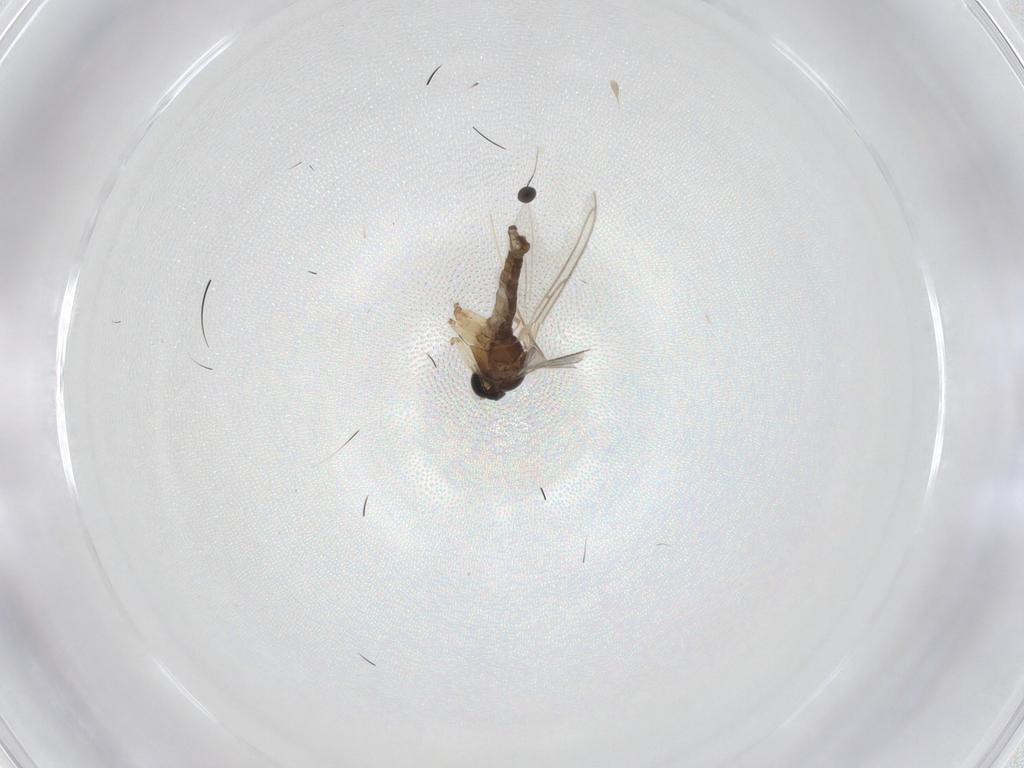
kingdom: Animalia
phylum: Arthropoda
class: Insecta
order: Diptera
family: Sciaridae
